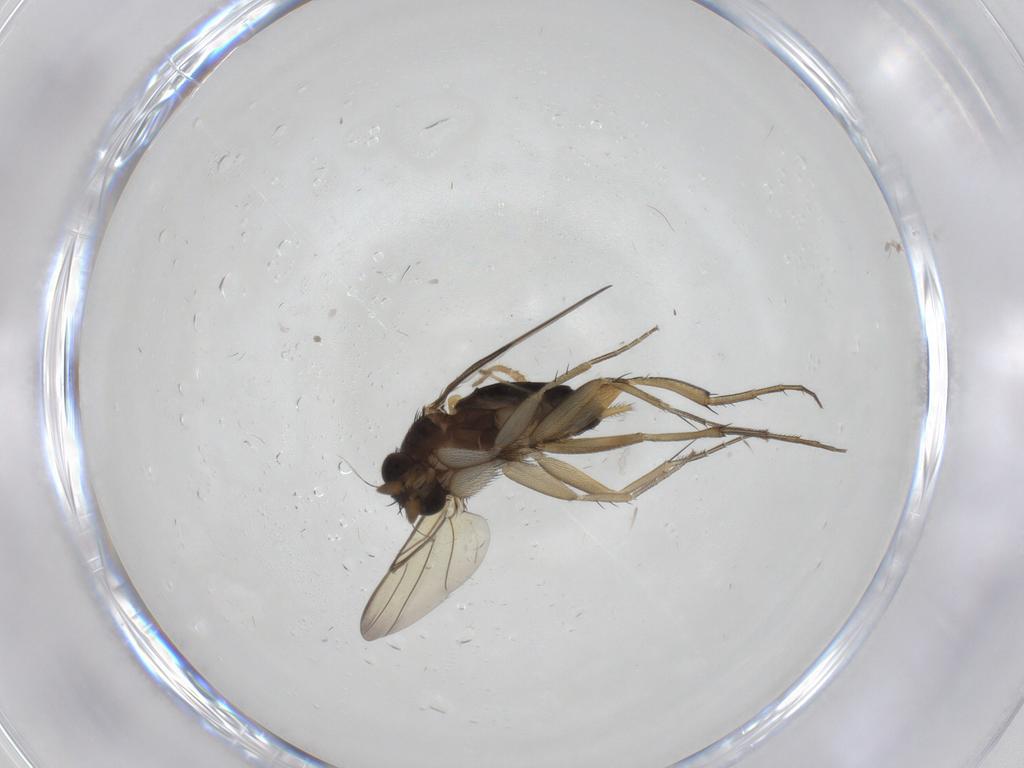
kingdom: Animalia
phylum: Arthropoda
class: Insecta
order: Diptera
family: Phoridae
